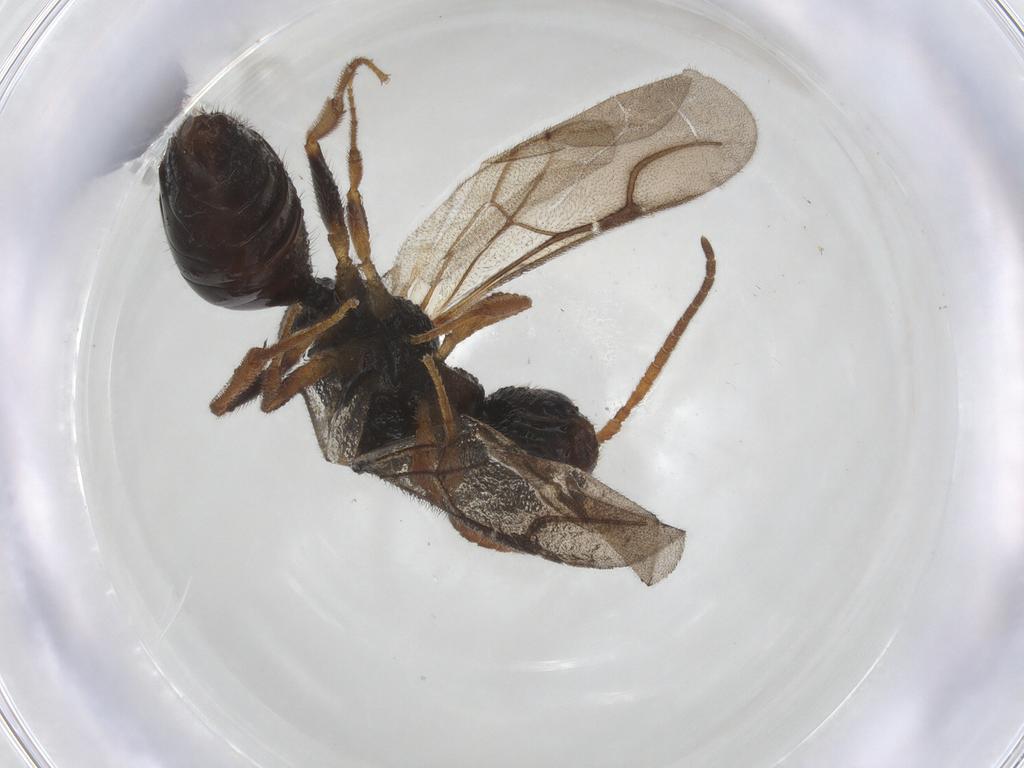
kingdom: Animalia
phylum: Arthropoda
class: Insecta
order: Hymenoptera
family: Bethylidae
